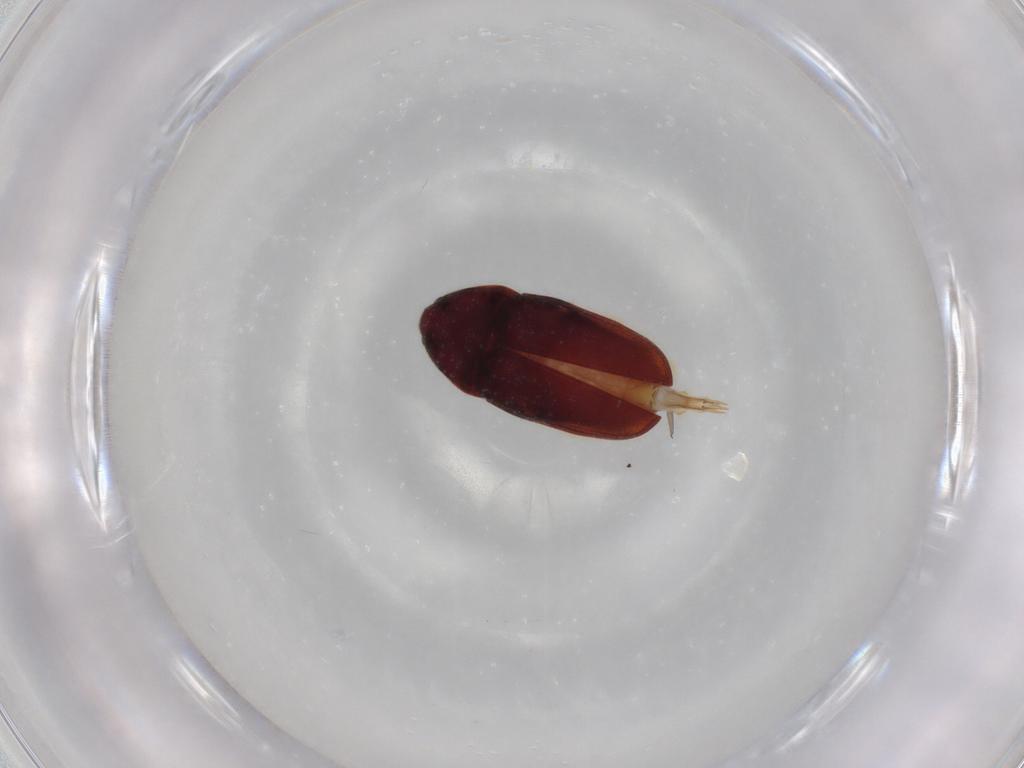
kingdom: Animalia
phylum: Arthropoda
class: Insecta
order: Coleoptera
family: Throscidae
